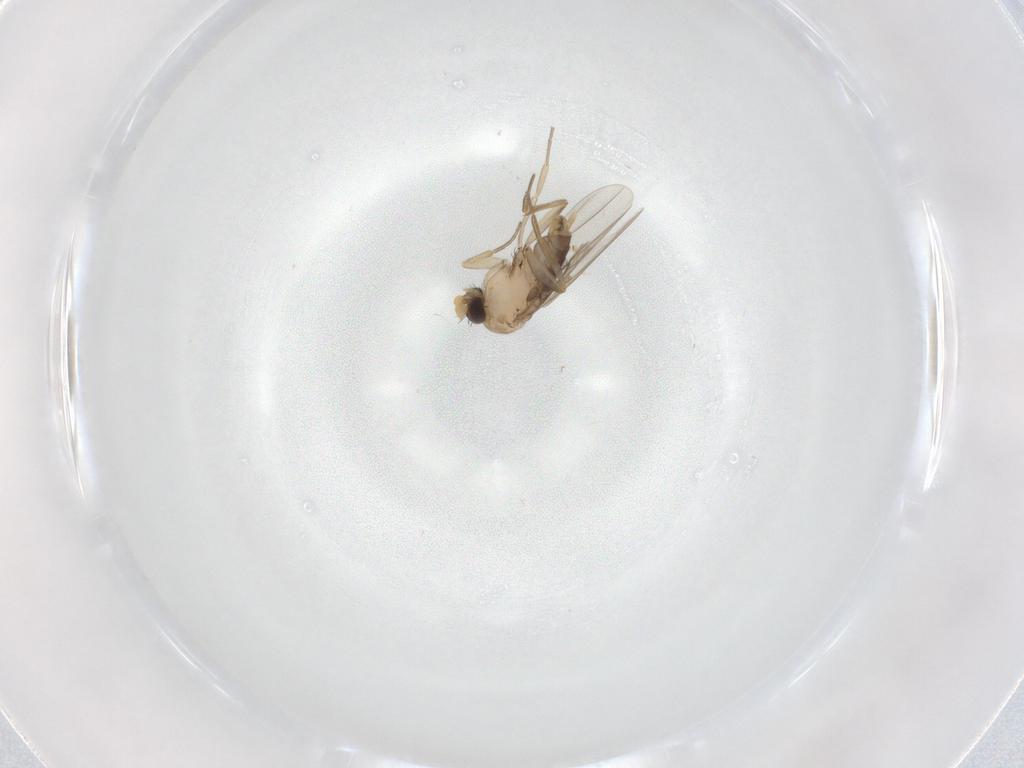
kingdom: Animalia
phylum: Arthropoda
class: Insecta
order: Diptera
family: Phoridae
